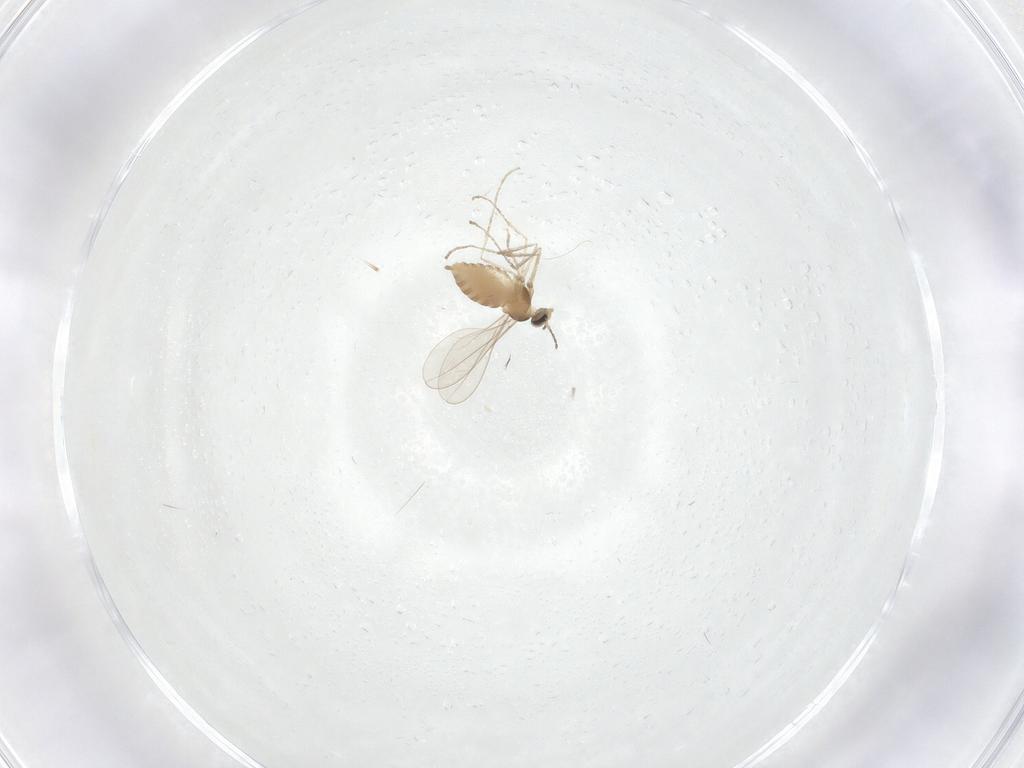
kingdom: Animalia
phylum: Arthropoda
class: Insecta
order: Diptera
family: Cecidomyiidae
